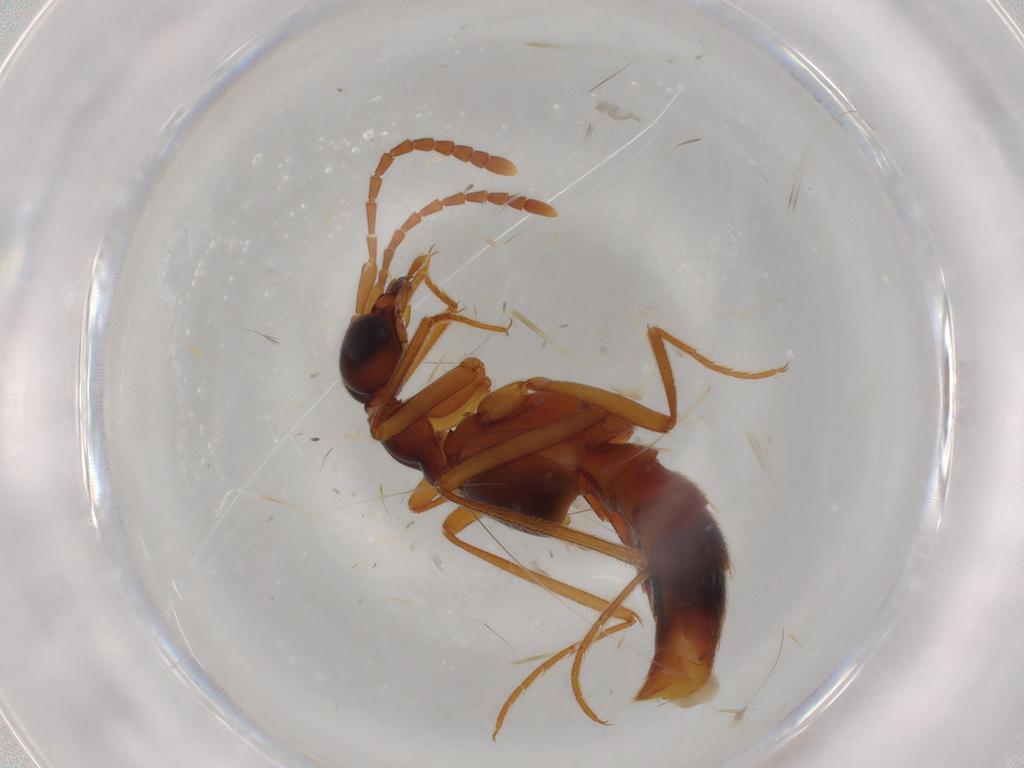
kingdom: Animalia
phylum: Arthropoda
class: Insecta
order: Coleoptera
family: Staphylinidae
